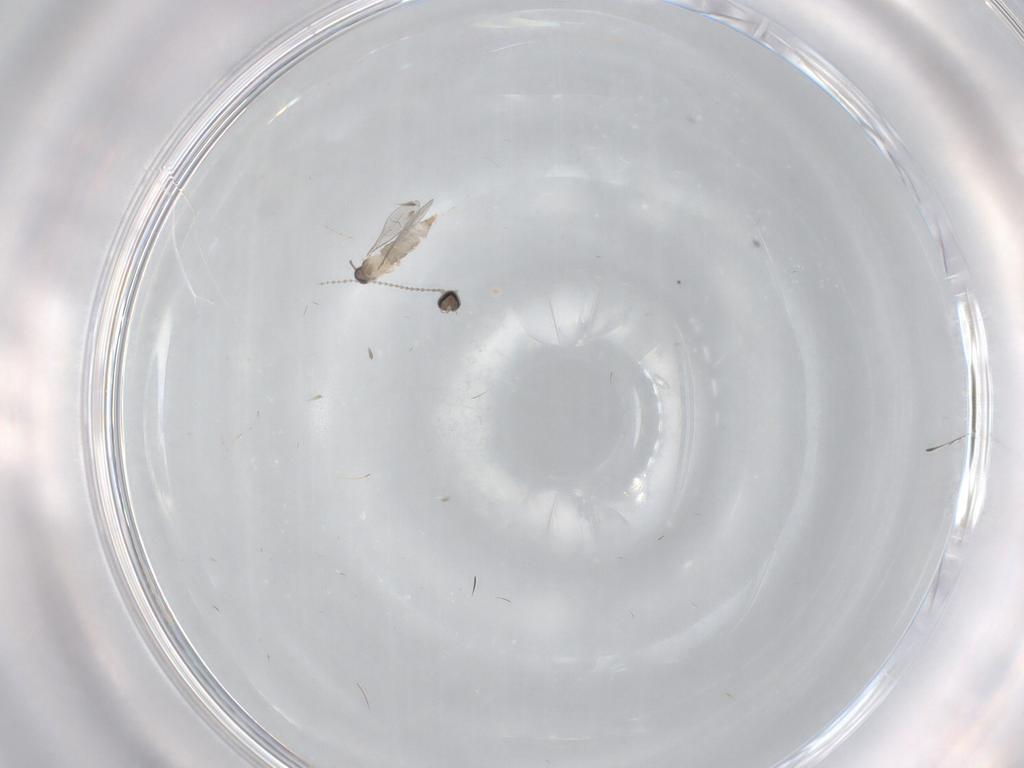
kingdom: Animalia
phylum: Arthropoda
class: Insecta
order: Diptera
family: Cecidomyiidae
